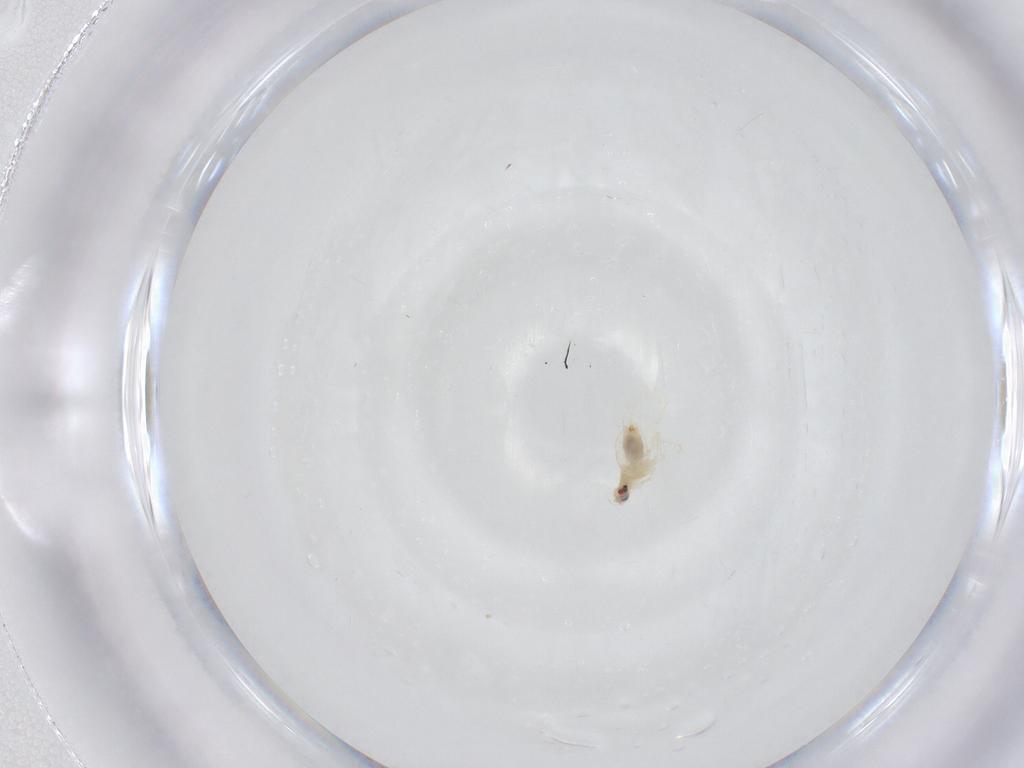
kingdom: Animalia
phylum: Arthropoda
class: Insecta
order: Hemiptera
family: Aleyrodidae
